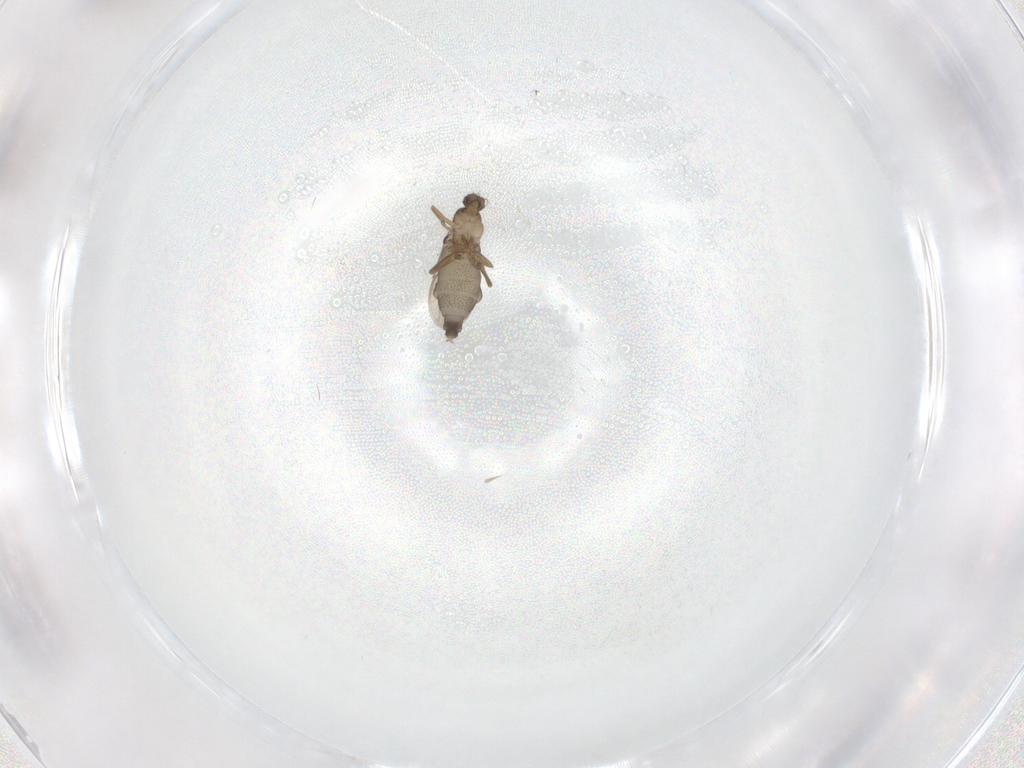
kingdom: Animalia
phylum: Arthropoda
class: Insecta
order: Diptera
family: Phoridae
